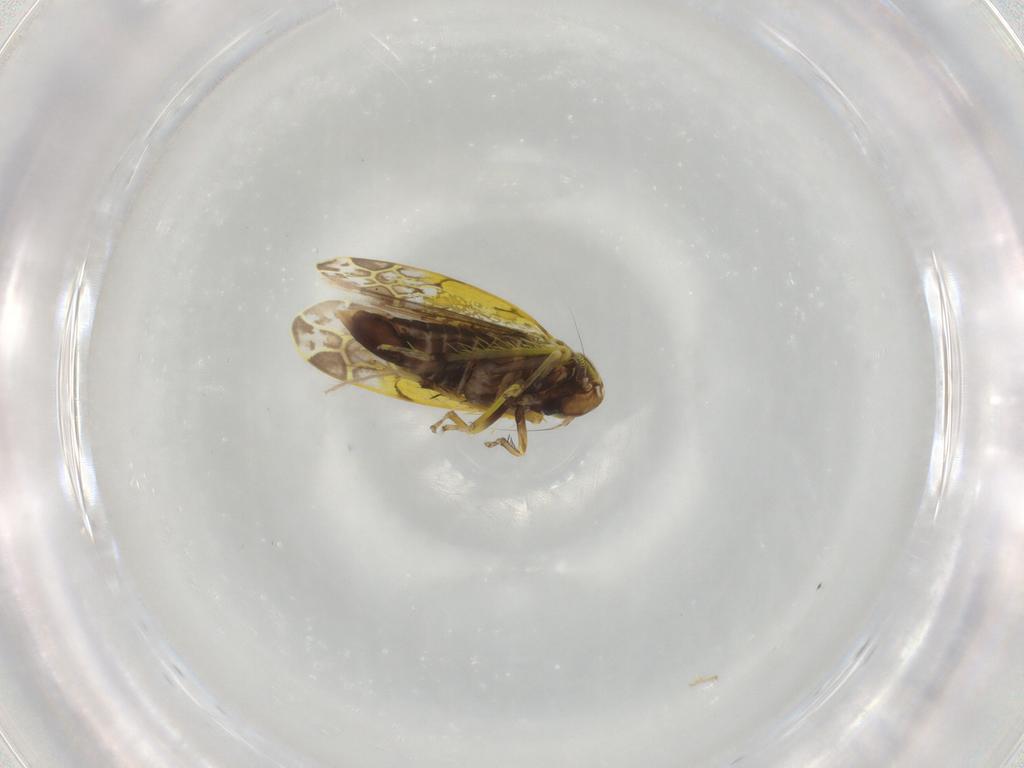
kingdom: Animalia
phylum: Arthropoda
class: Insecta
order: Hemiptera
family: Cicadellidae
